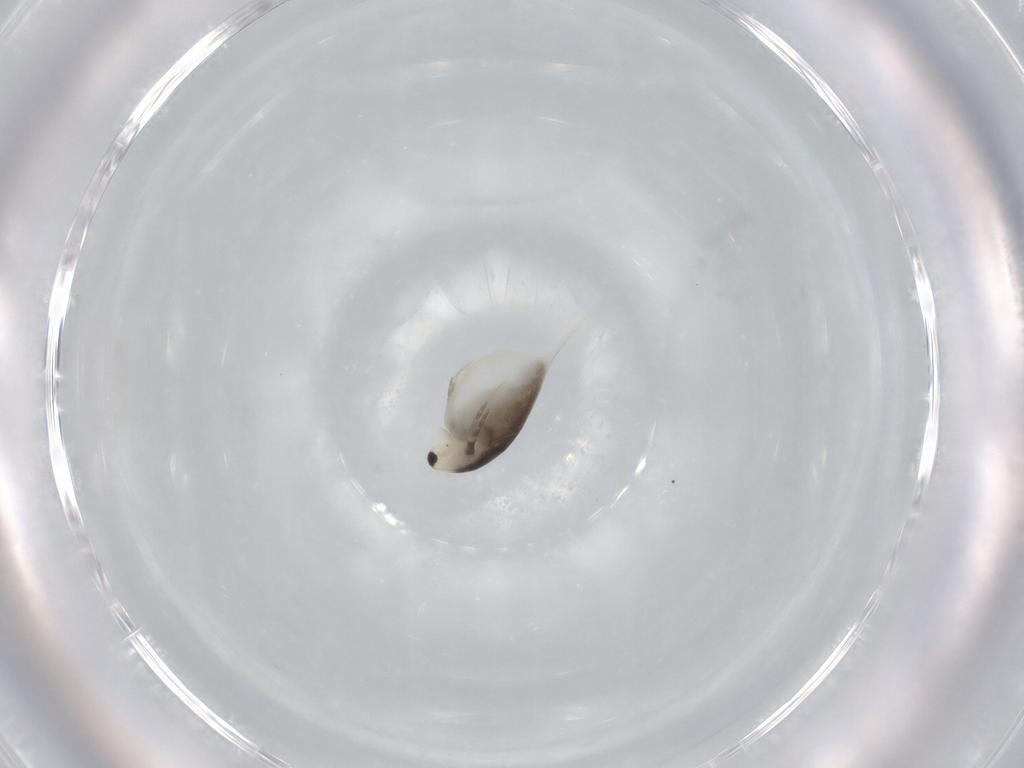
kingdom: Animalia
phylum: Arthropoda
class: Branchiopoda
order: Diplostraca
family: Daphniidae
